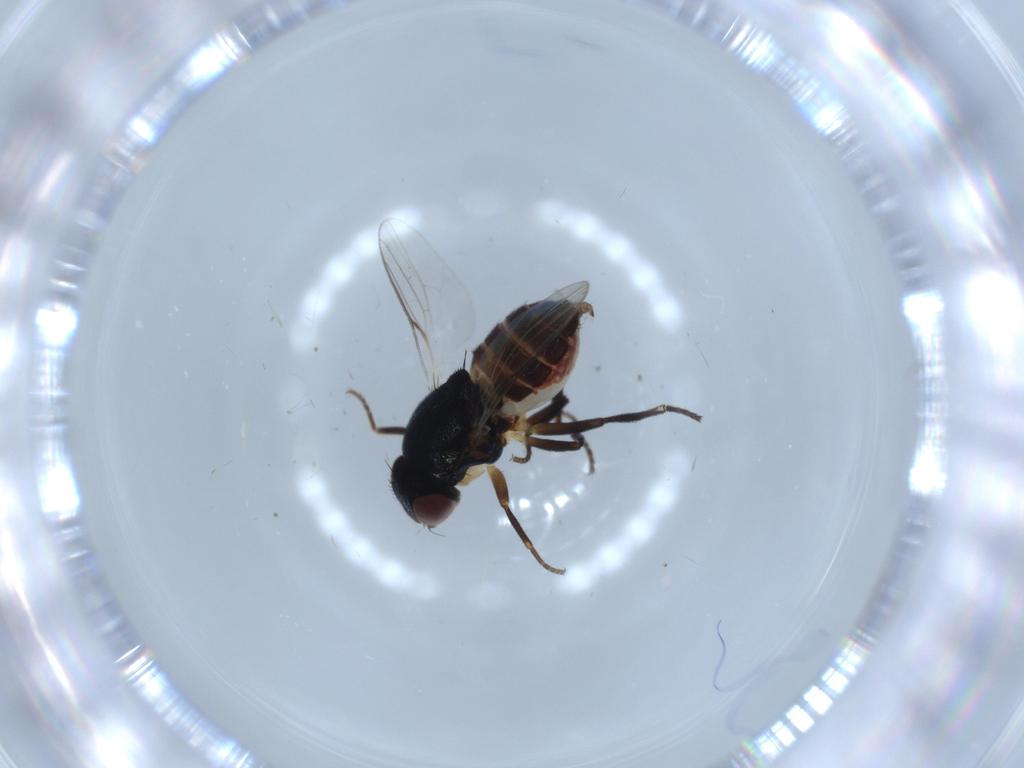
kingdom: Animalia
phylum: Arthropoda
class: Insecta
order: Diptera
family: Chloropidae
